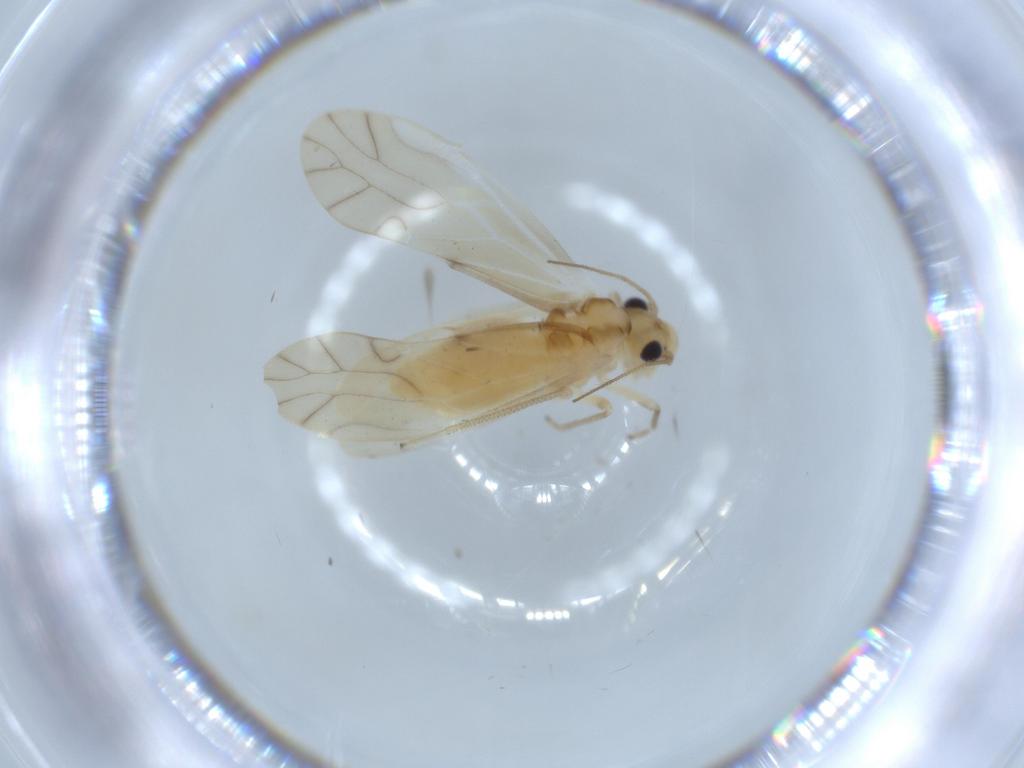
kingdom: Animalia
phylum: Arthropoda
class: Insecta
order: Psocodea
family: Caeciliusidae
